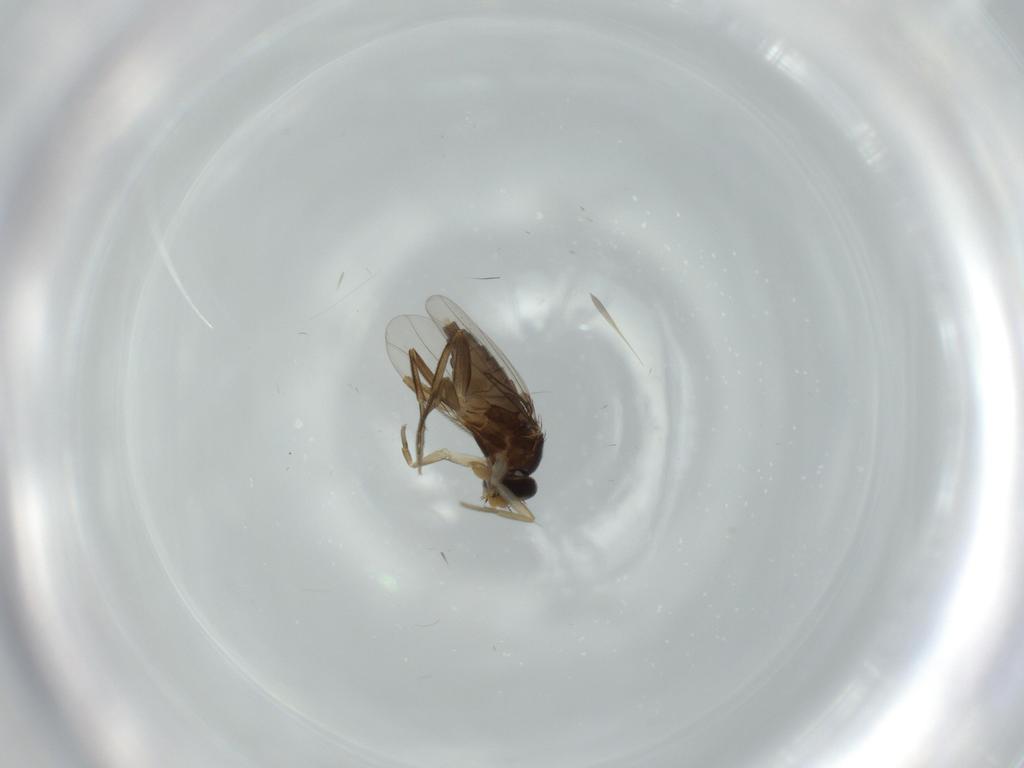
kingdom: Animalia
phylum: Arthropoda
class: Insecta
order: Diptera
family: Phoridae
